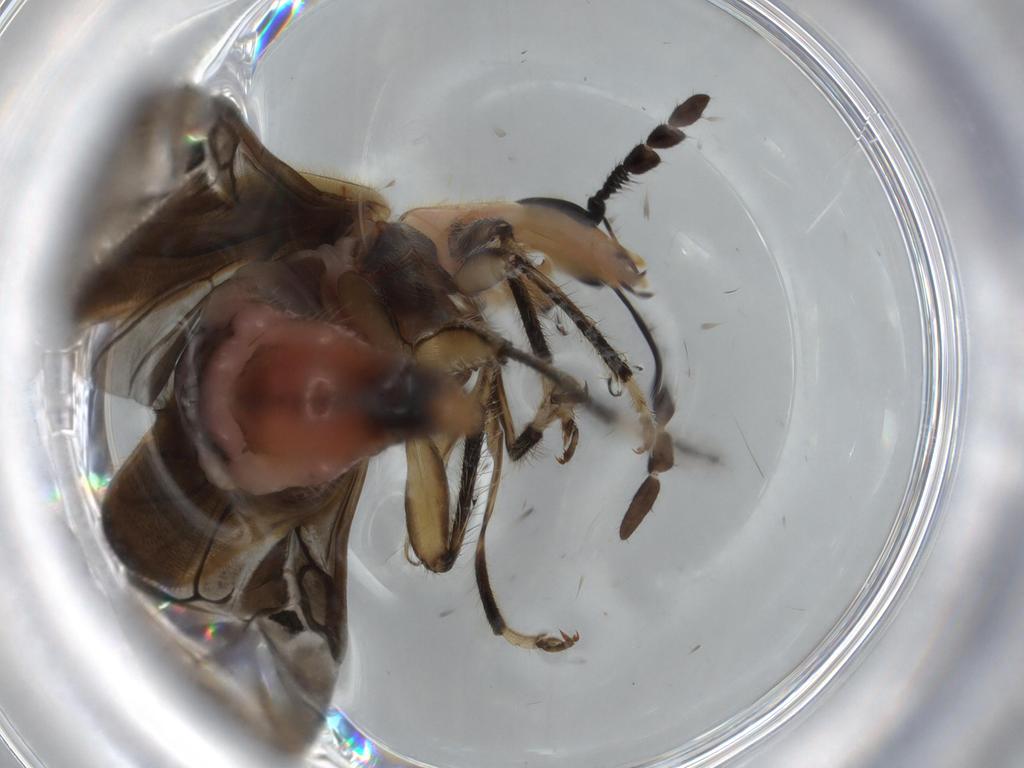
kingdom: Animalia
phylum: Arthropoda
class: Insecta
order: Coleoptera
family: Cleridae
